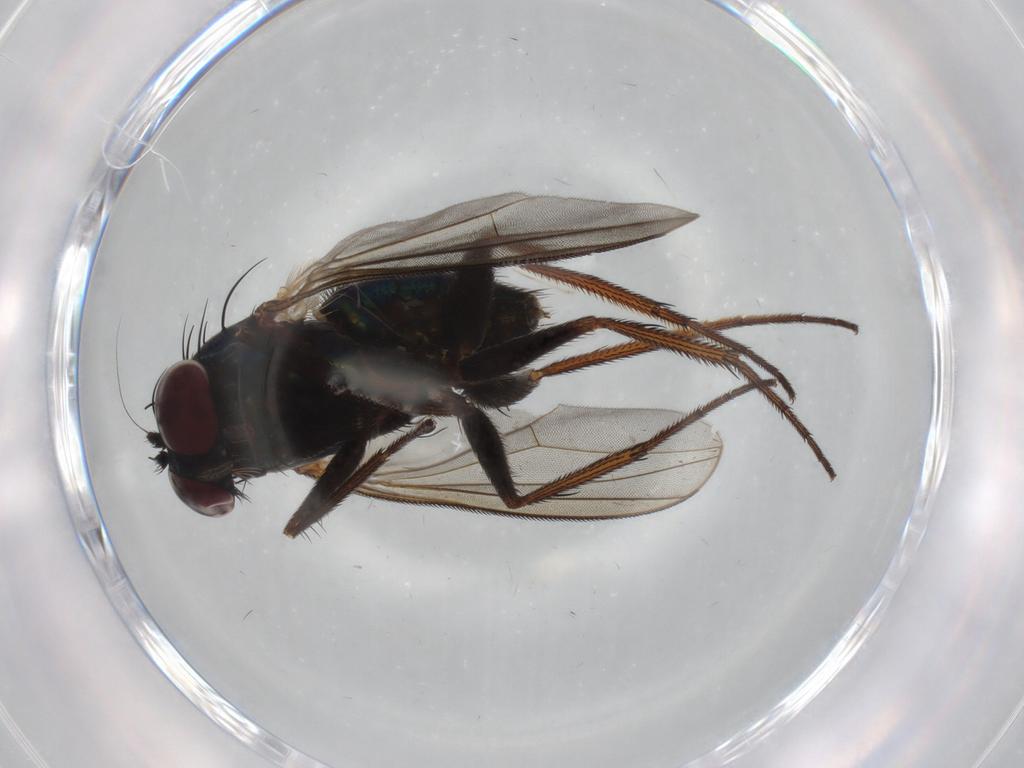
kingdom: Animalia
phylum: Arthropoda
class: Insecta
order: Diptera
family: Dolichopodidae
